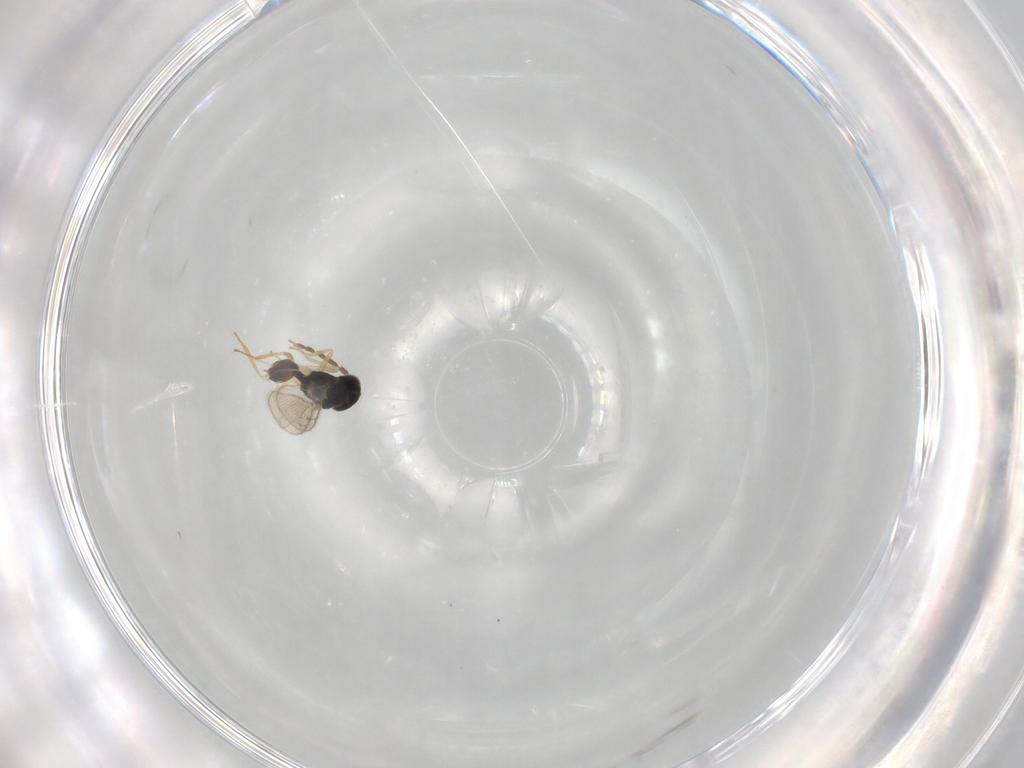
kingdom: Animalia
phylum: Arthropoda
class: Insecta
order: Hymenoptera
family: Eulophidae
